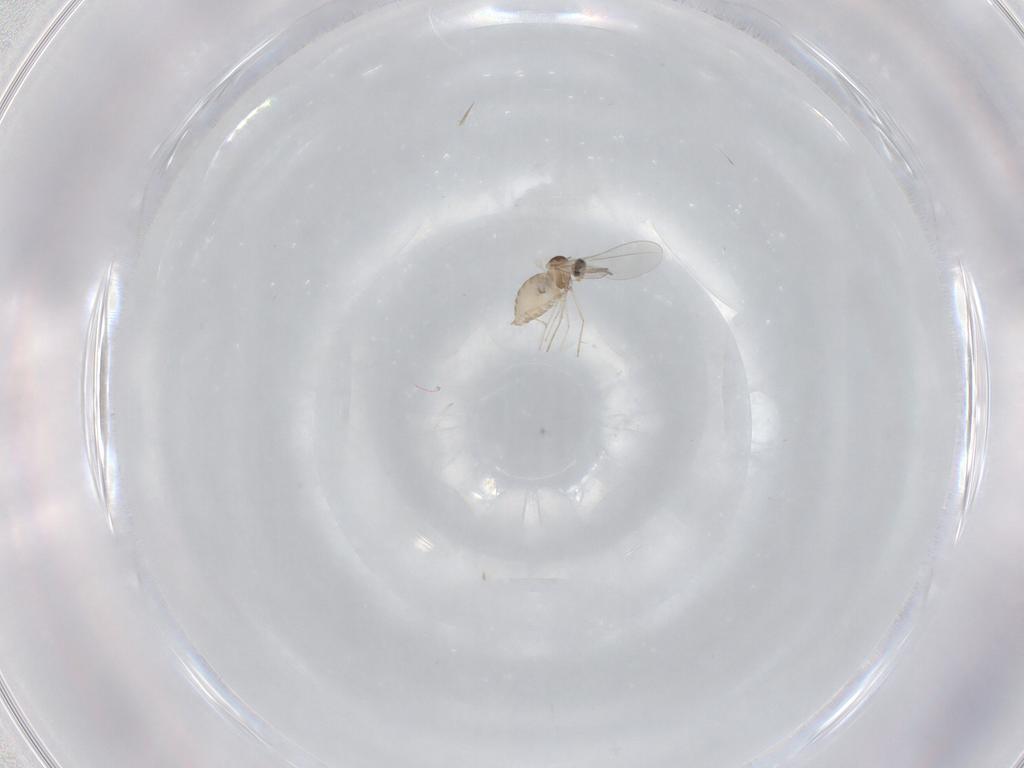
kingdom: Animalia
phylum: Arthropoda
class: Insecta
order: Diptera
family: Cecidomyiidae
